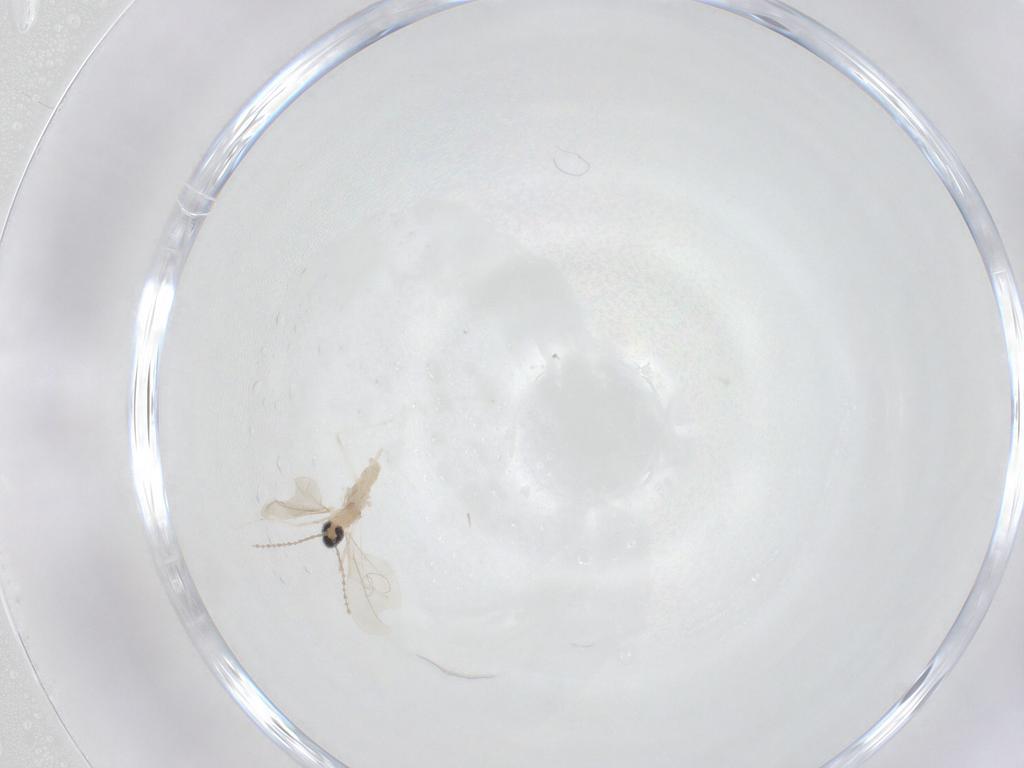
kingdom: Animalia
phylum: Arthropoda
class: Insecta
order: Diptera
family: Cecidomyiidae
